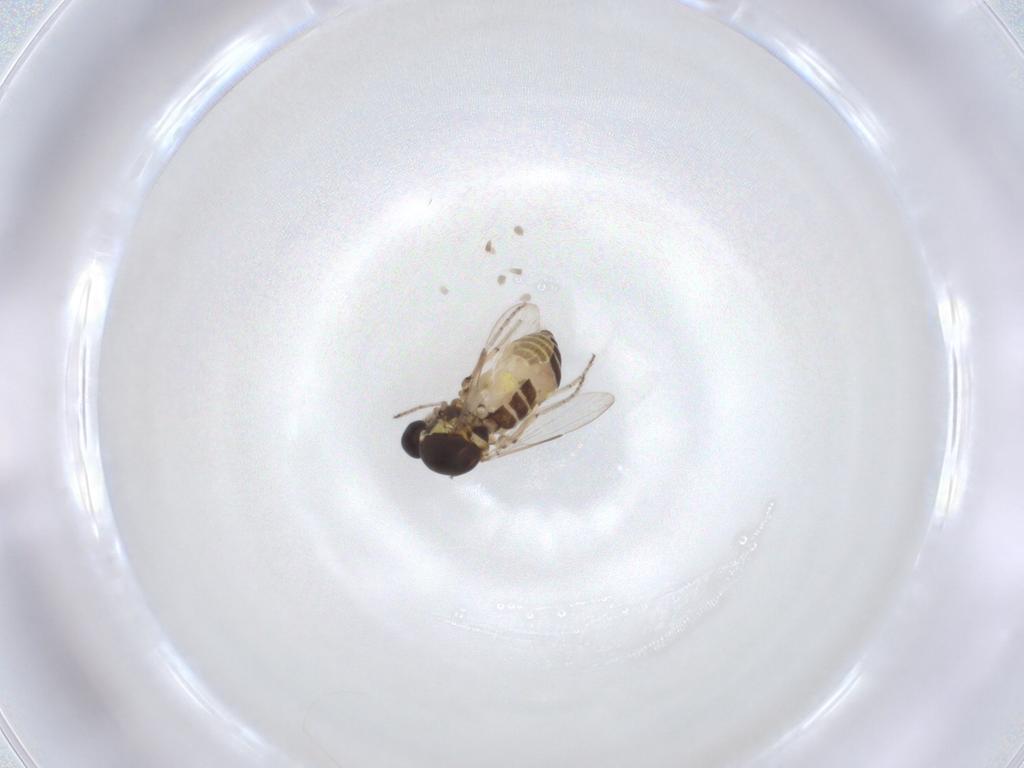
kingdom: Animalia
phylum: Arthropoda
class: Insecta
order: Diptera
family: Ceratopogonidae
